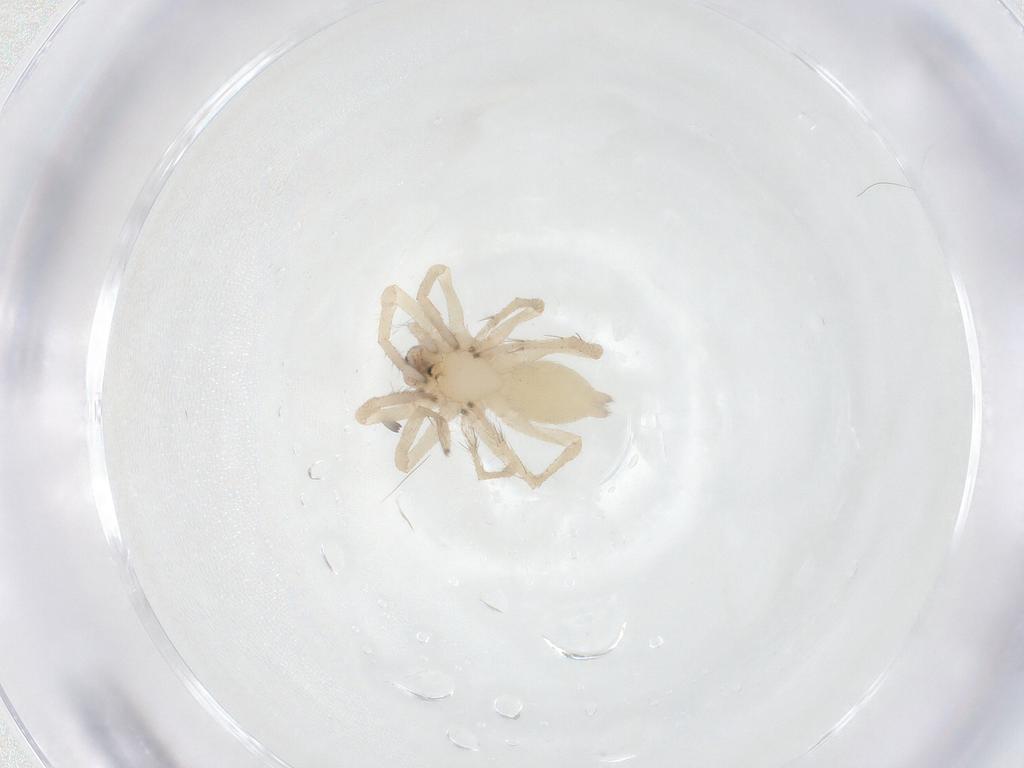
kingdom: Animalia
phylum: Arthropoda
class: Arachnida
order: Araneae
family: Clubionidae
